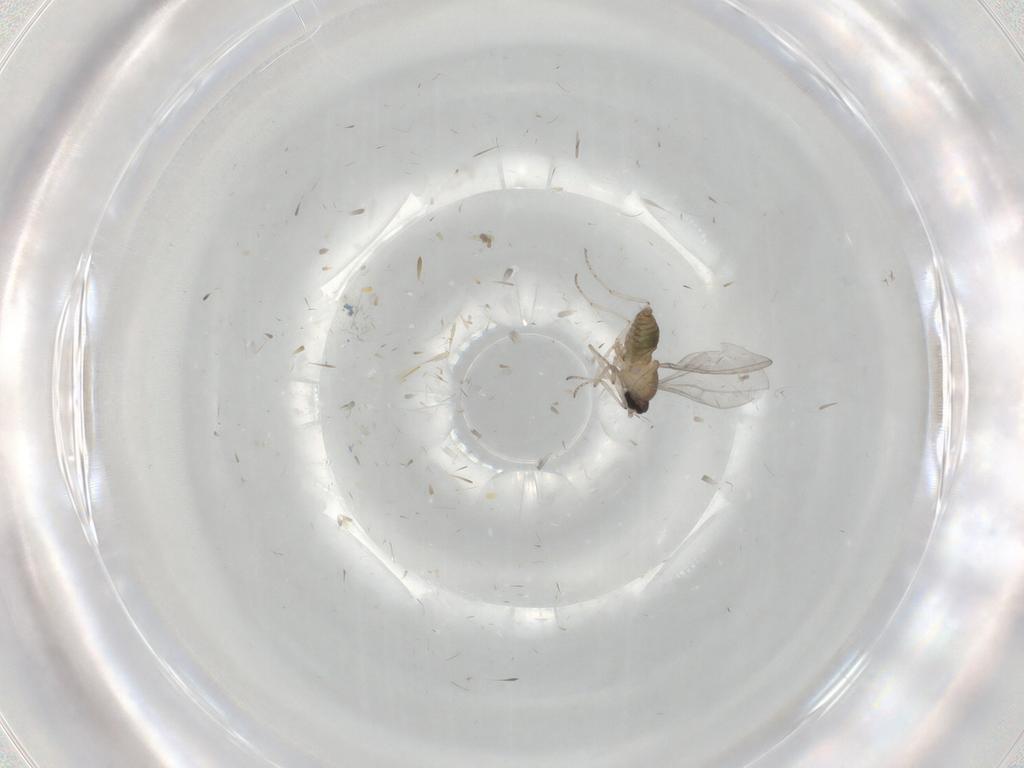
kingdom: Animalia
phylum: Arthropoda
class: Insecta
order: Diptera
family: Cecidomyiidae
